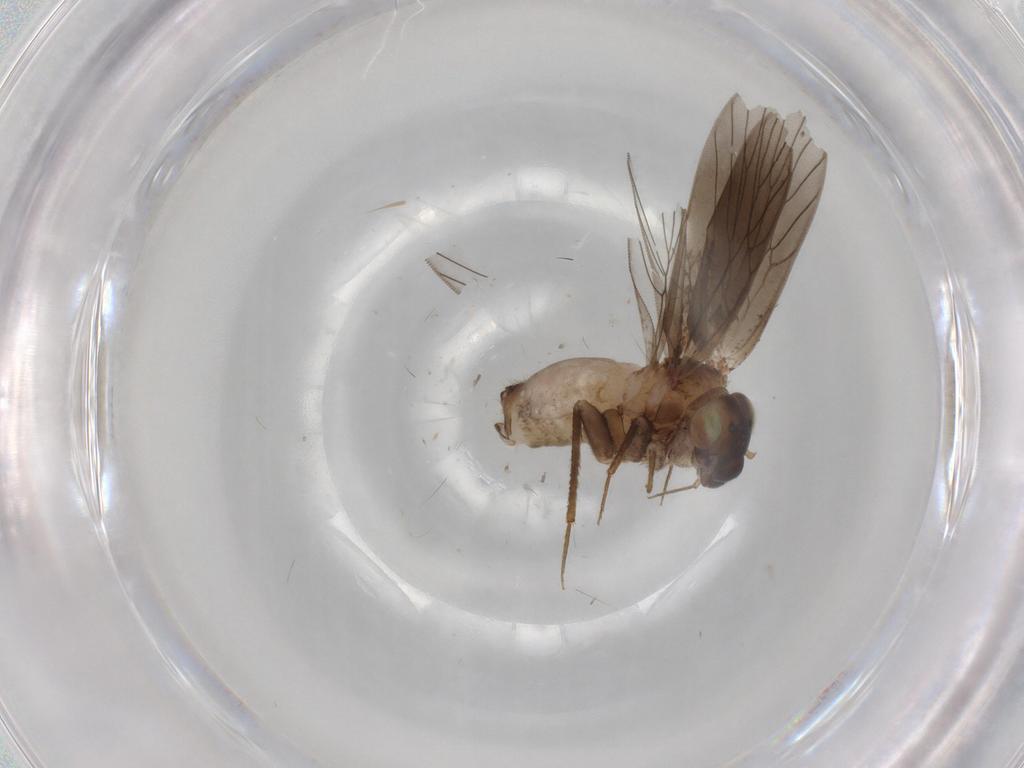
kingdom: Animalia
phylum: Arthropoda
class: Insecta
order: Psocodea
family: Lepidopsocidae
